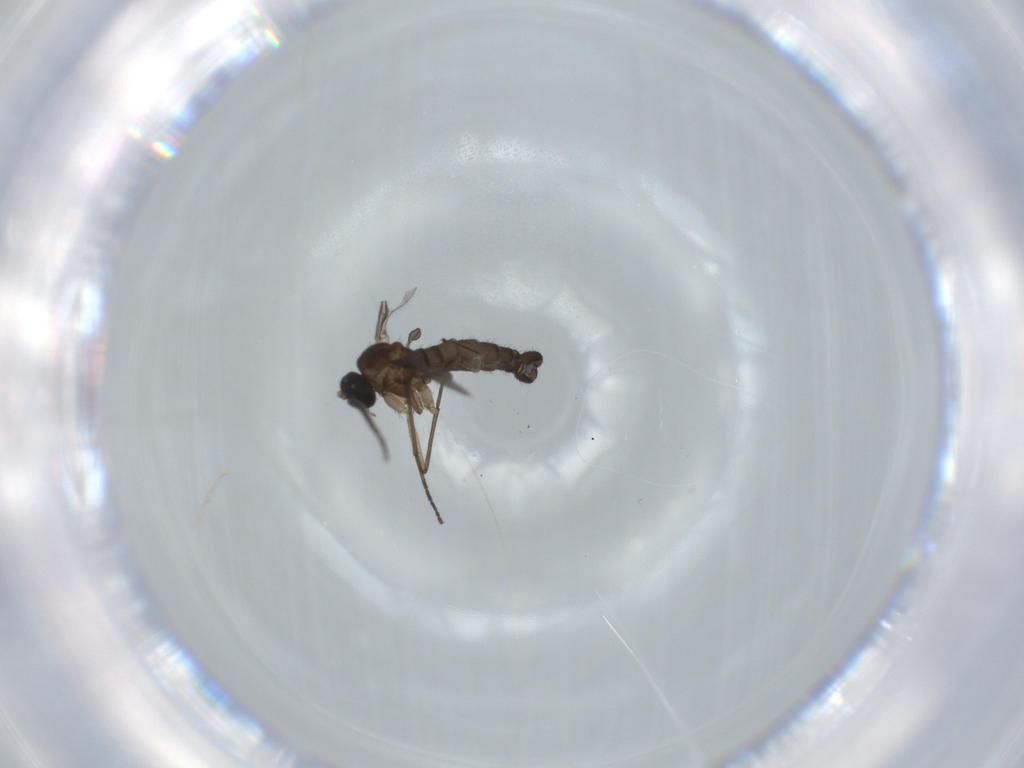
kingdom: Animalia
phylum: Arthropoda
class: Insecta
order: Diptera
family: Sciaridae
